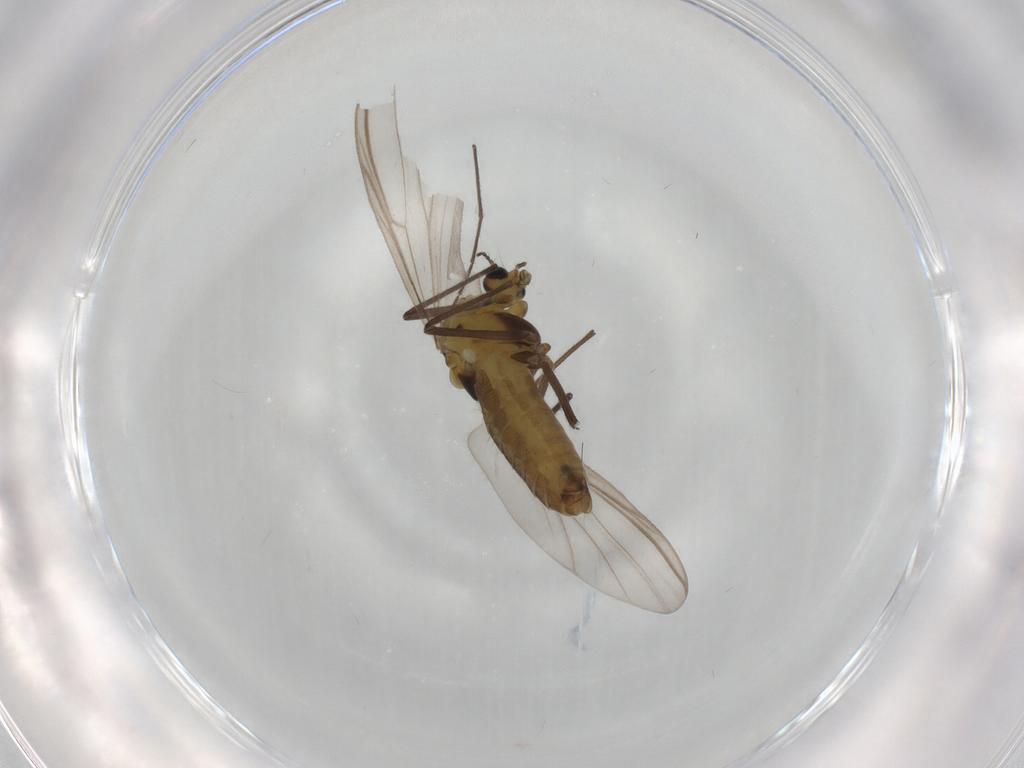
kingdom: Animalia
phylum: Arthropoda
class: Insecta
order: Diptera
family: Chironomidae
